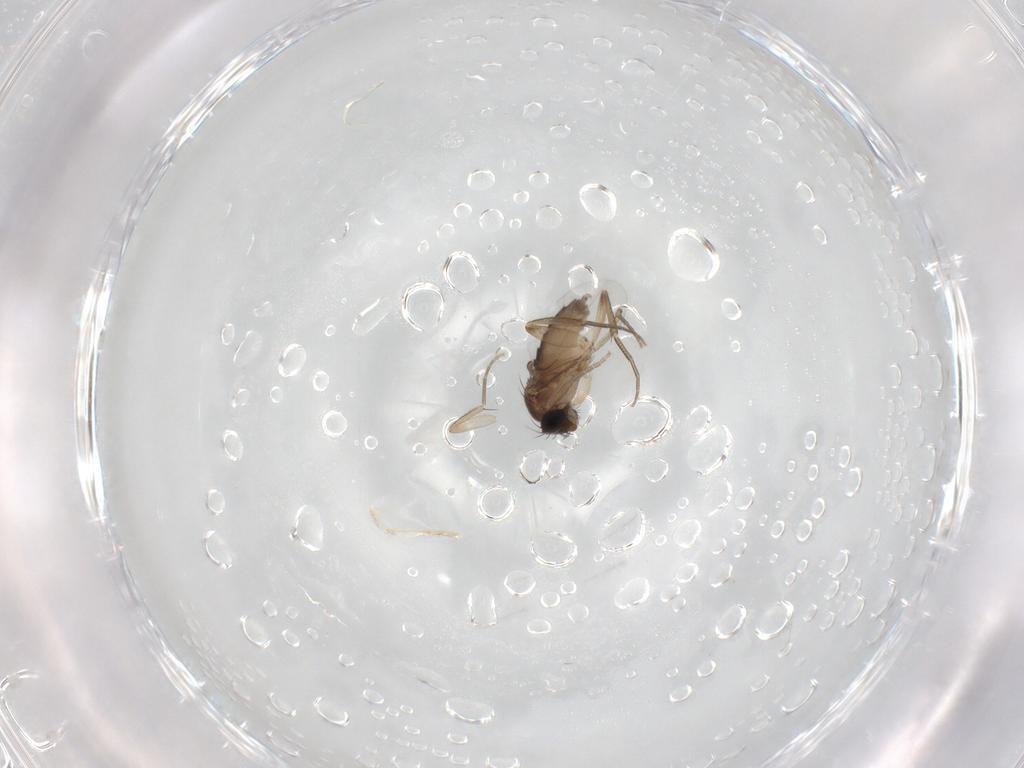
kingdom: Animalia
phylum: Arthropoda
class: Insecta
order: Diptera
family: Phoridae
